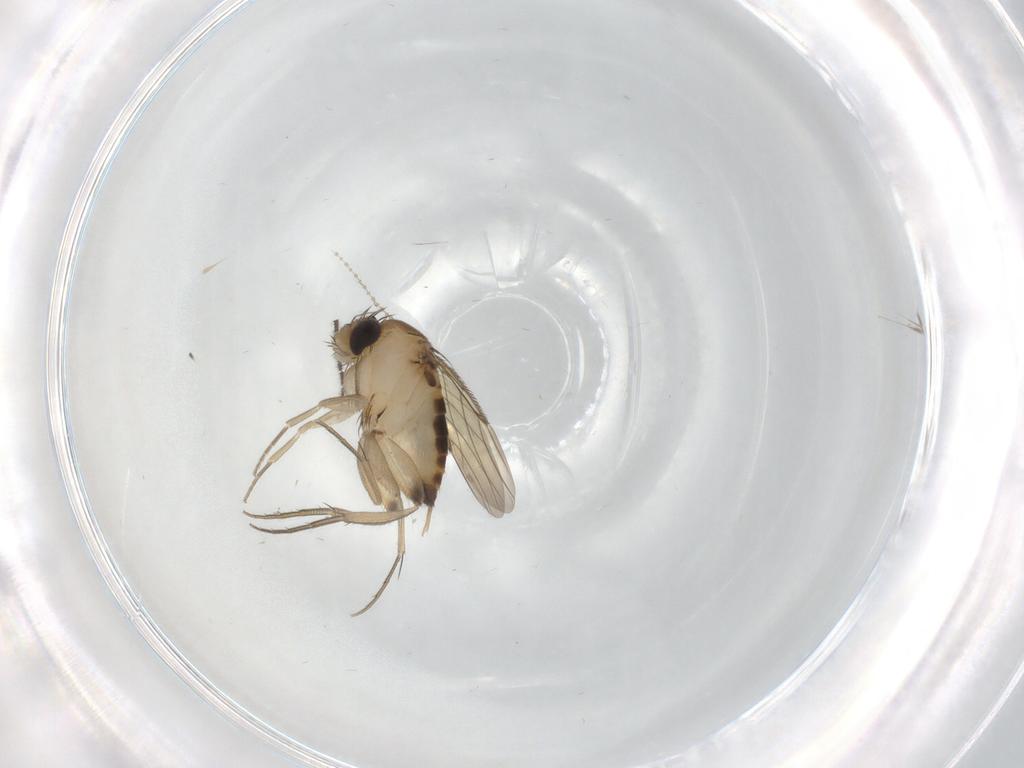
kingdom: Animalia
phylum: Arthropoda
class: Insecta
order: Diptera
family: Phoridae
